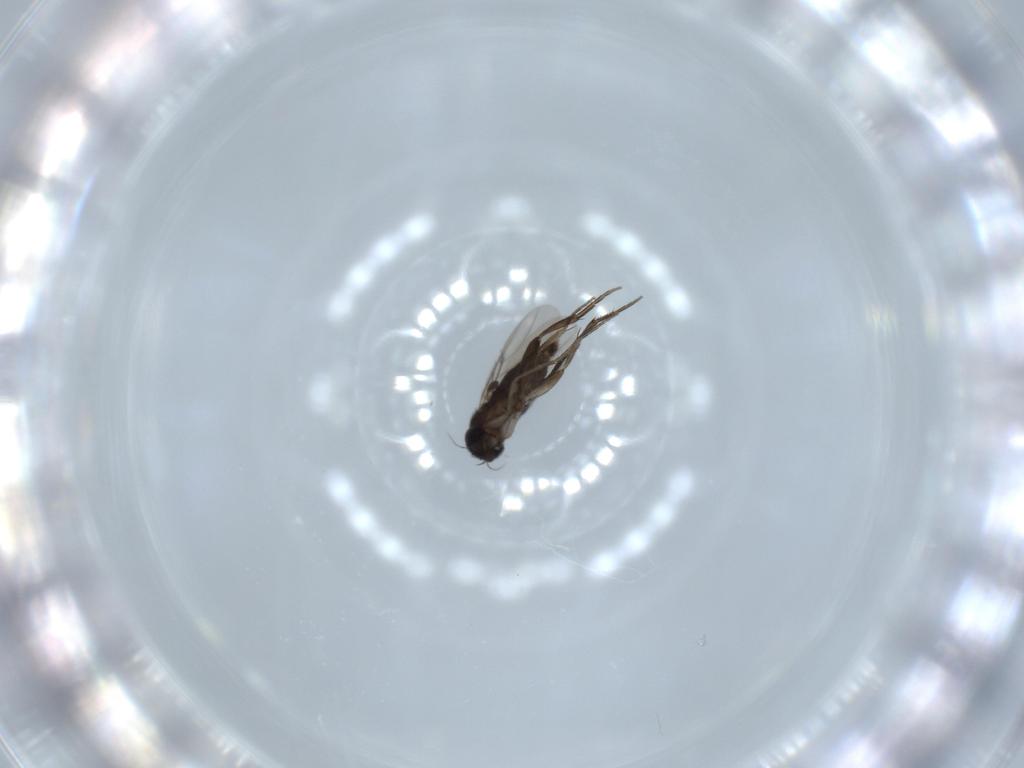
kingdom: Animalia
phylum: Arthropoda
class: Insecta
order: Diptera
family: Phoridae
